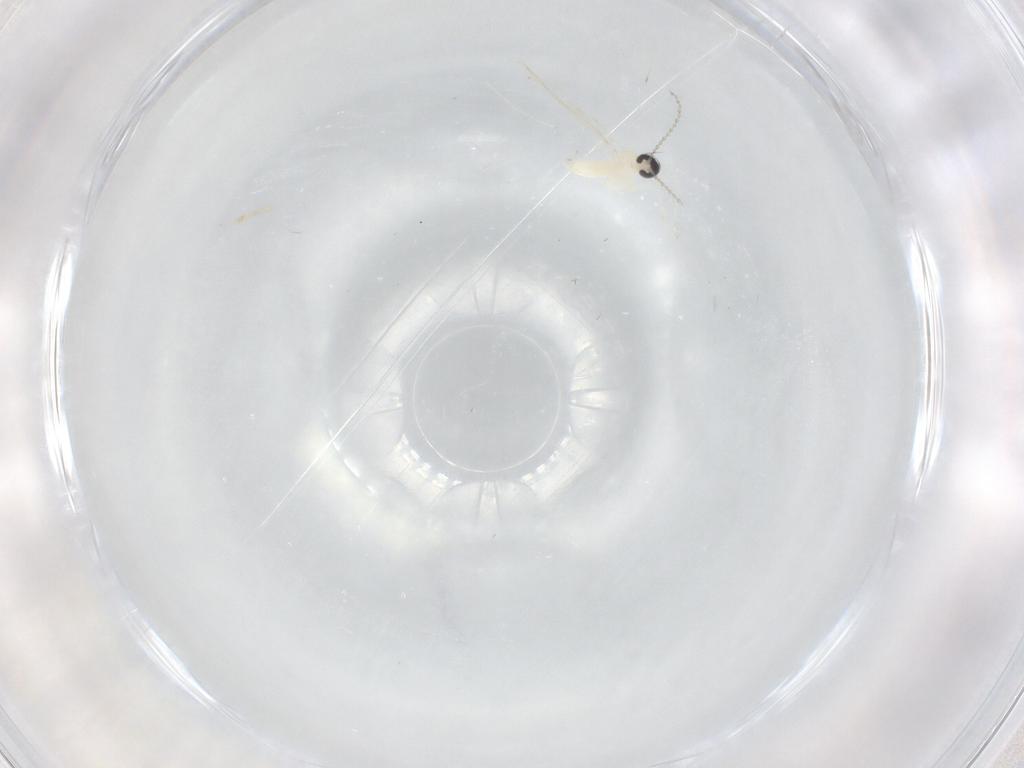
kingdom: Animalia
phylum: Arthropoda
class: Insecta
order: Diptera
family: Cecidomyiidae
